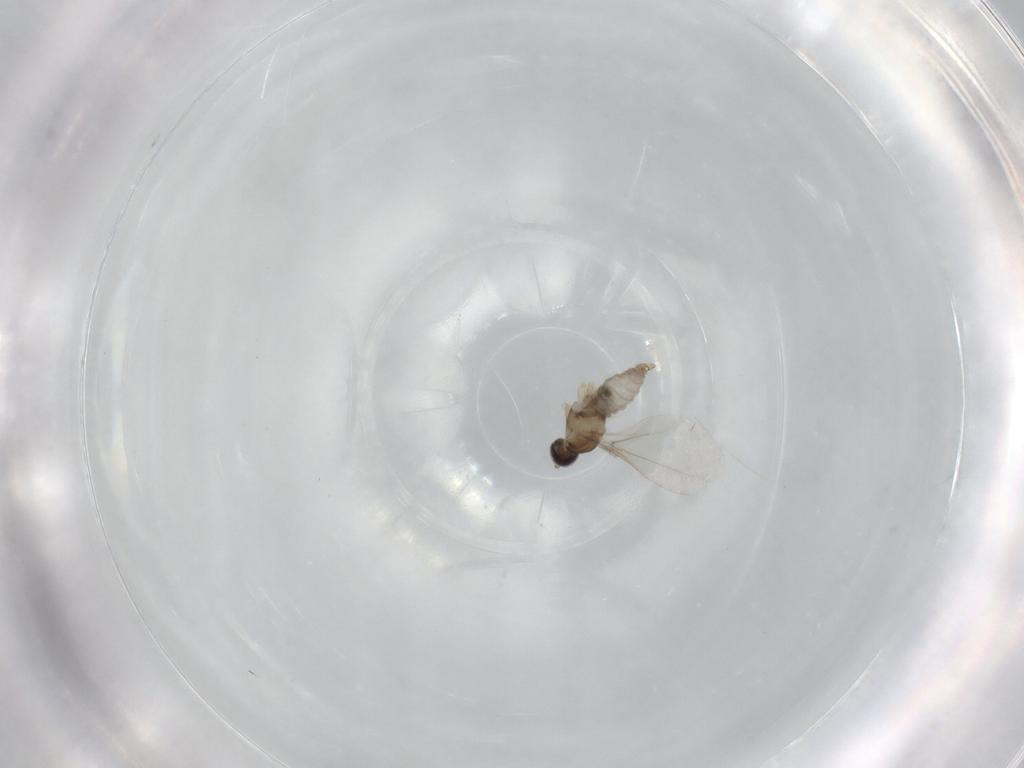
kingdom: Animalia
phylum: Arthropoda
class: Insecta
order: Diptera
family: Cecidomyiidae
